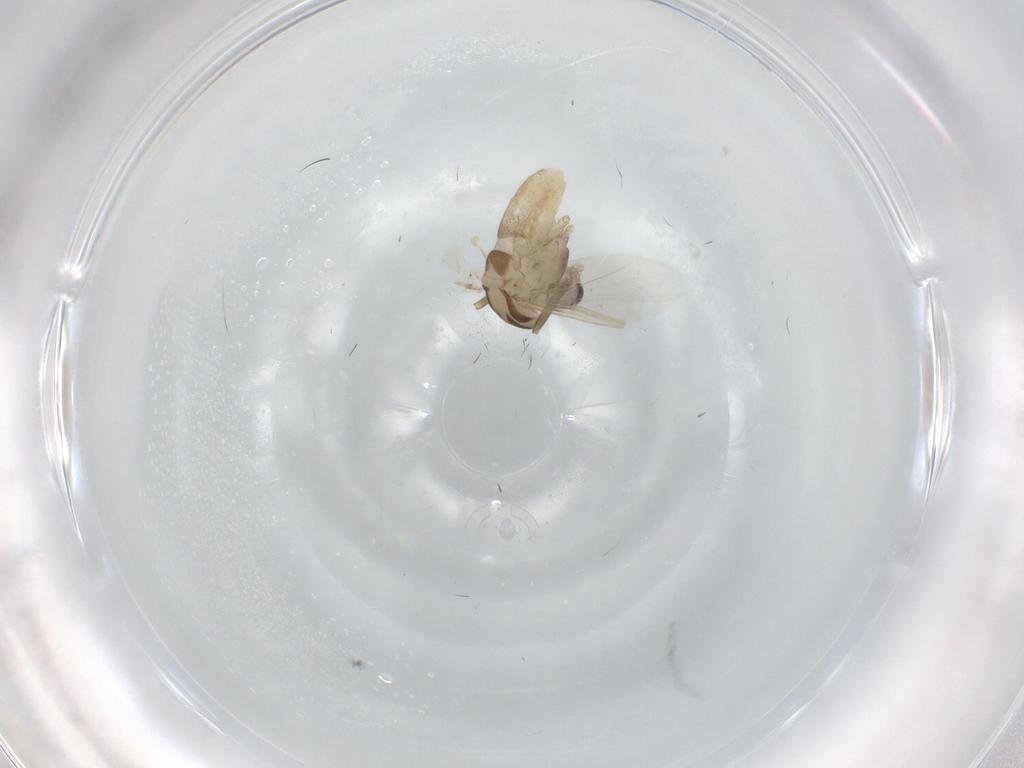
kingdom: Animalia
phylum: Arthropoda
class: Insecta
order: Diptera
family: Chironomidae
